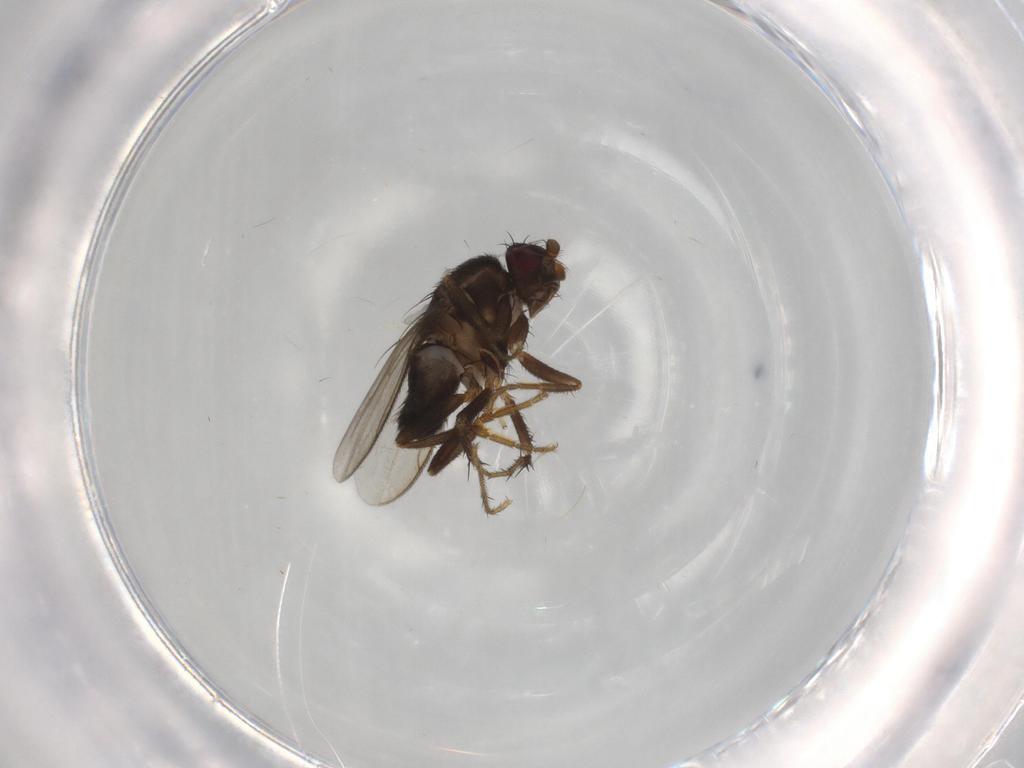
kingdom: Animalia
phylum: Arthropoda
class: Insecta
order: Diptera
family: Sphaeroceridae
